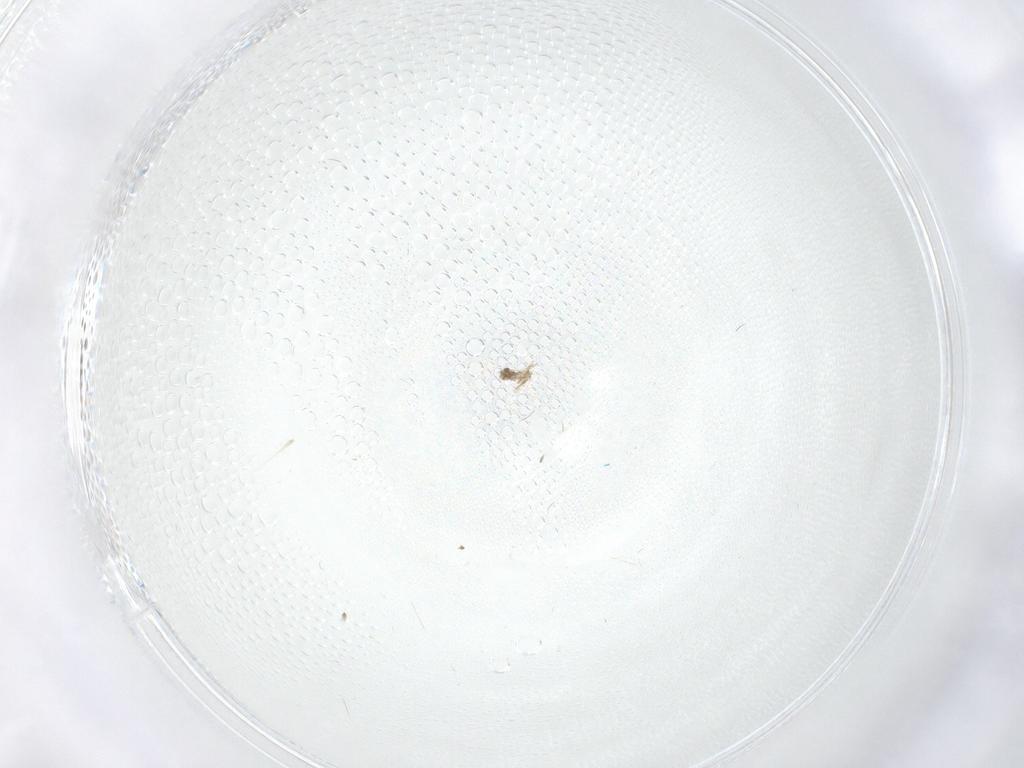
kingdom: Animalia
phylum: Arthropoda
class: Insecta
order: Diptera
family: Cecidomyiidae
